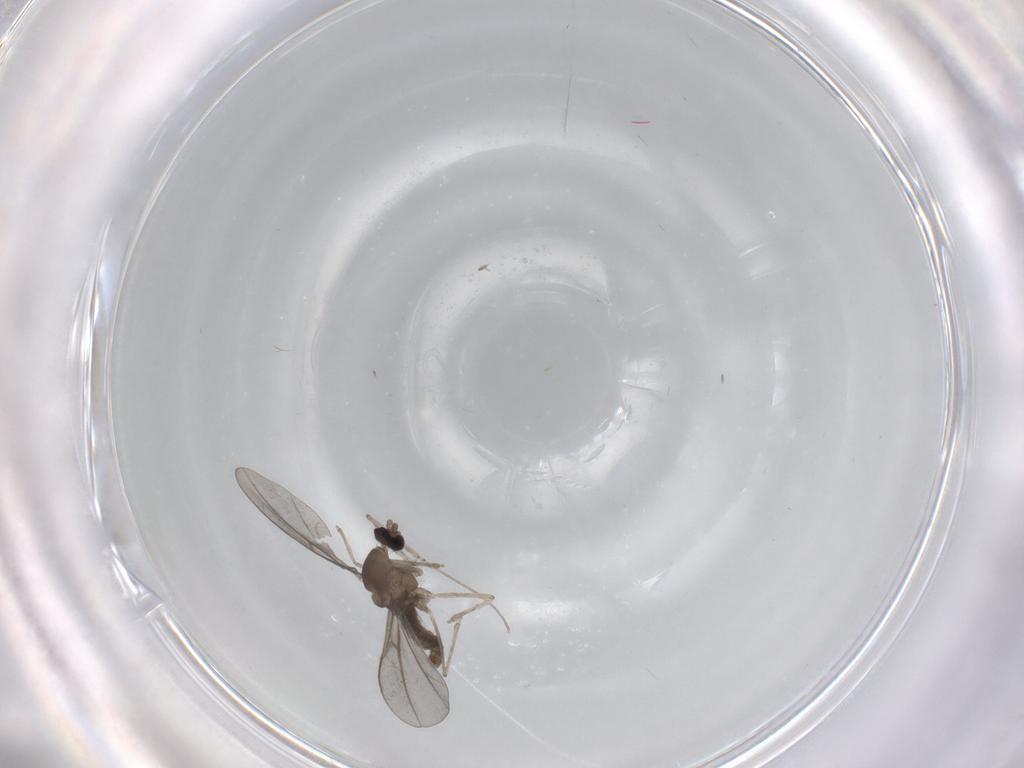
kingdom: Animalia
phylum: Arthropoda
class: Insecta
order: Diptera
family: Cecidomyiidae
